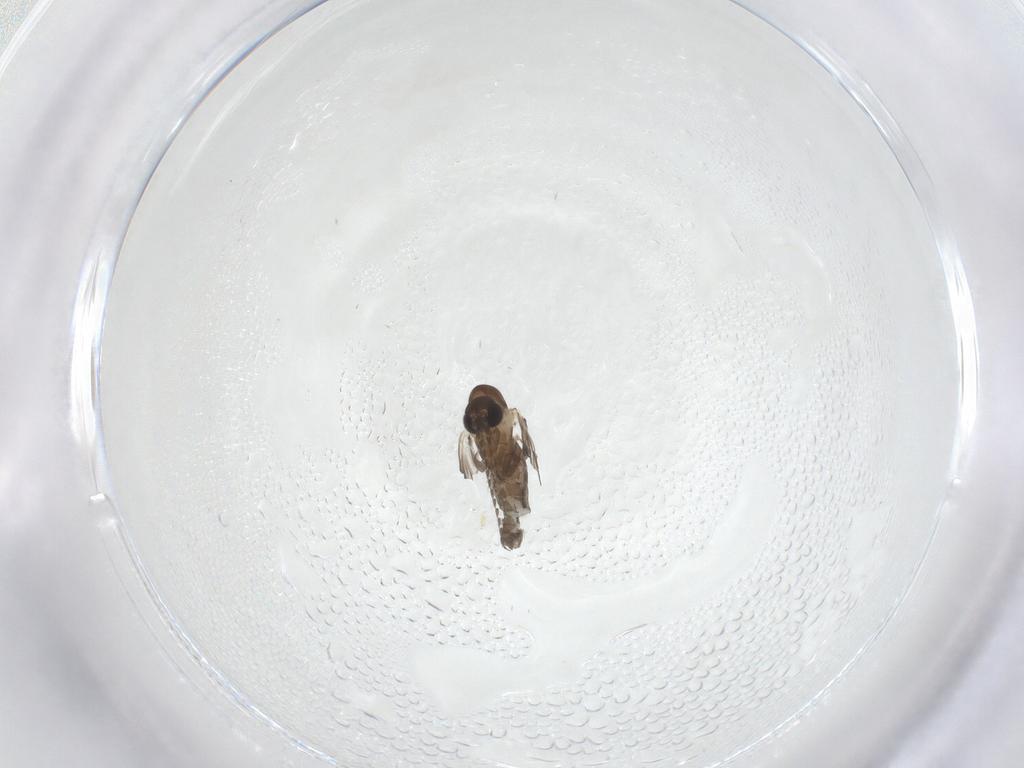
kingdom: Animalia
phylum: Arthropoda
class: Insecta
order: Diptera
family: Psychodidae
